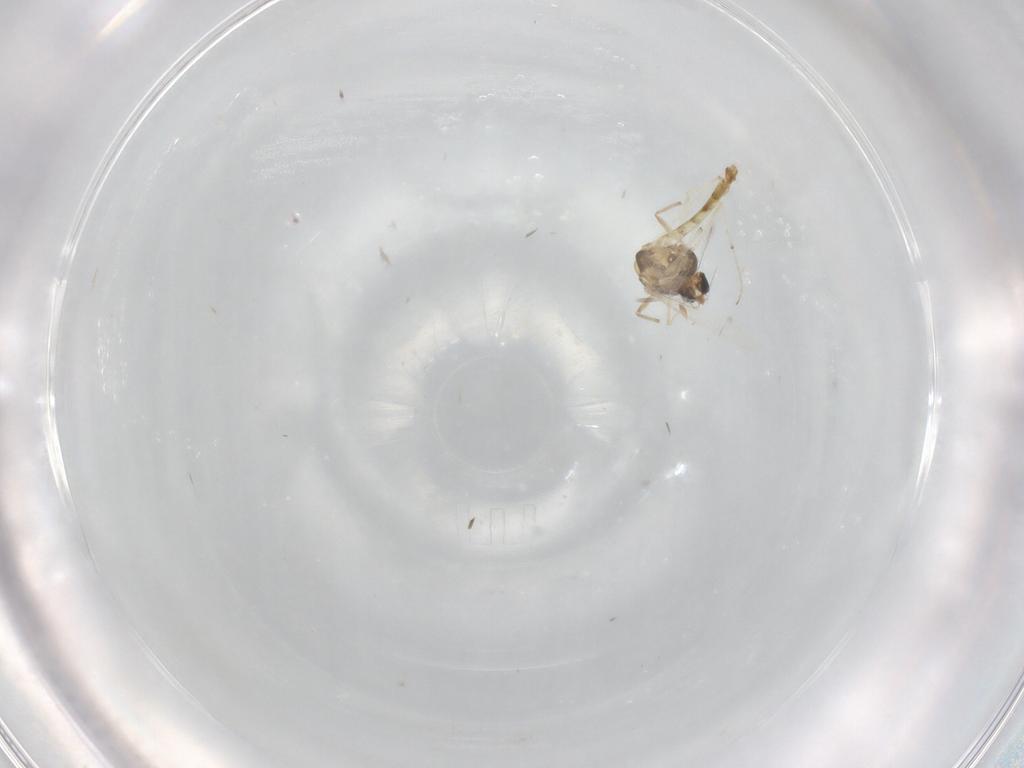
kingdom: Animalia
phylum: Arthropoda
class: Insecta
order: Diptera
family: Chironomidae
